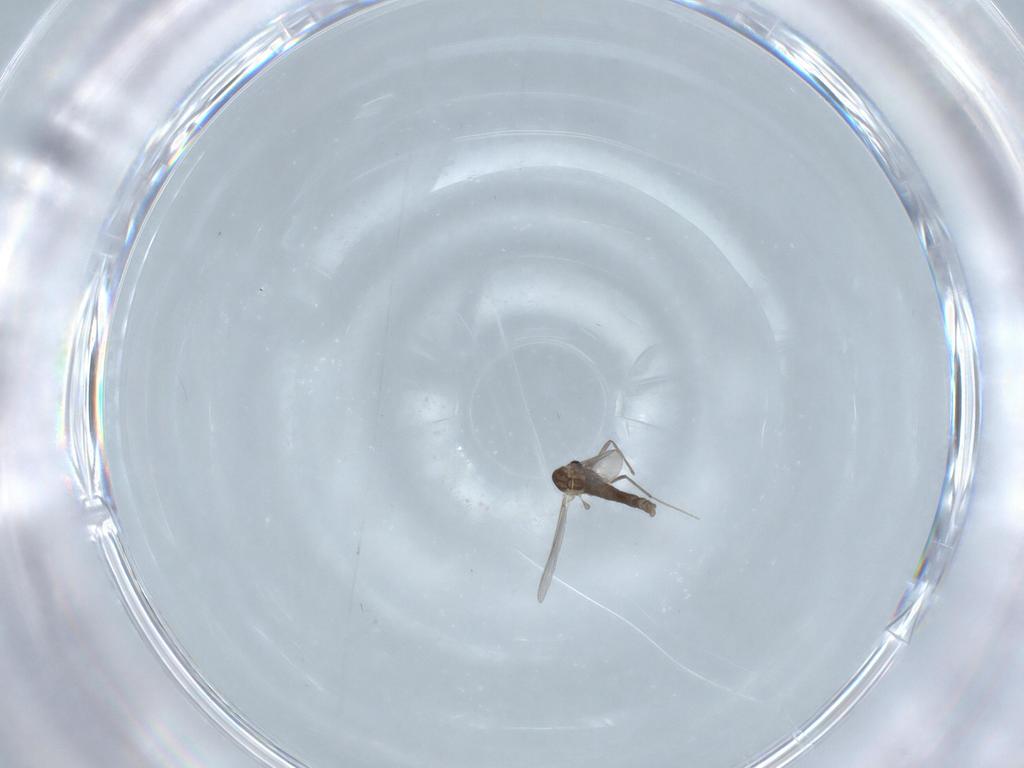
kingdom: Animalia
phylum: Arthropoda
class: Insecta
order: Diptera
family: Chironomidae
